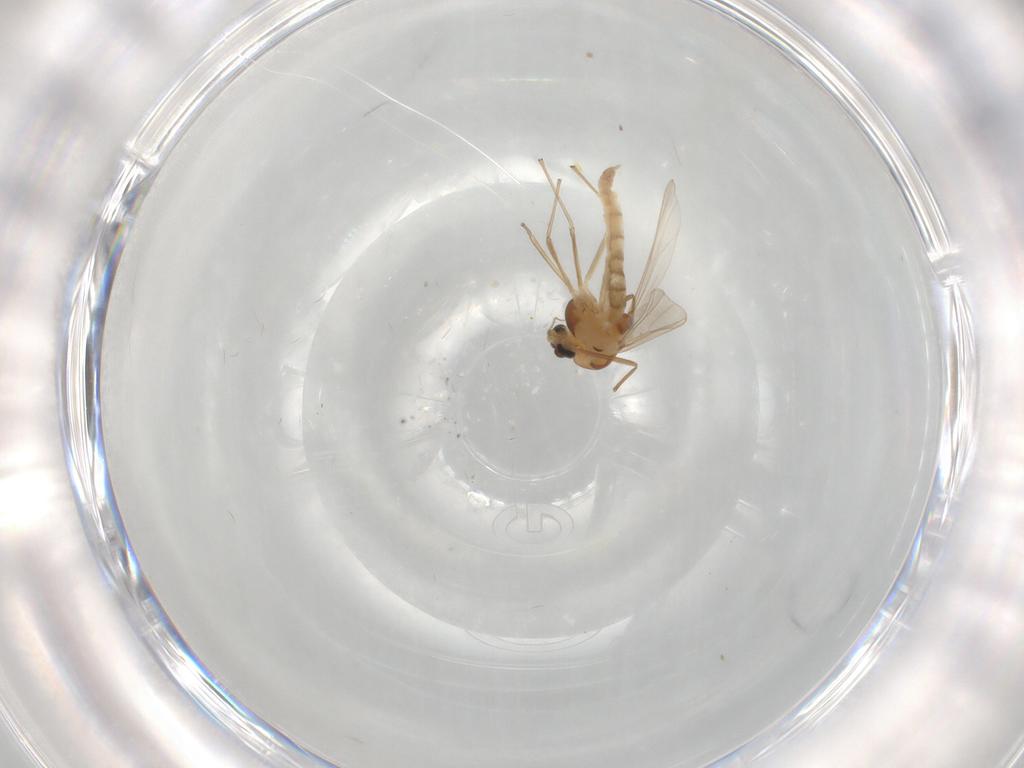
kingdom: Animalia
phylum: Arthropoda
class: Insecta
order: Diptera
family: Chironomidae
